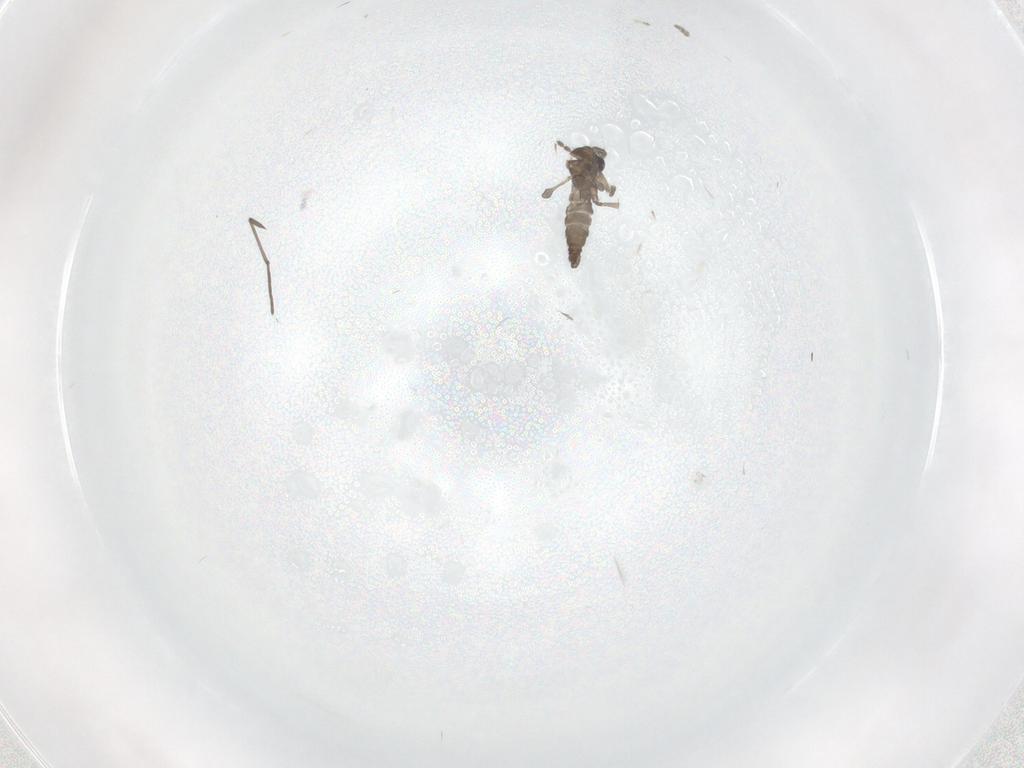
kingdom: Animalia
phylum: Arthropoda
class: Insecta
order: Diptera
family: Sciaridae
